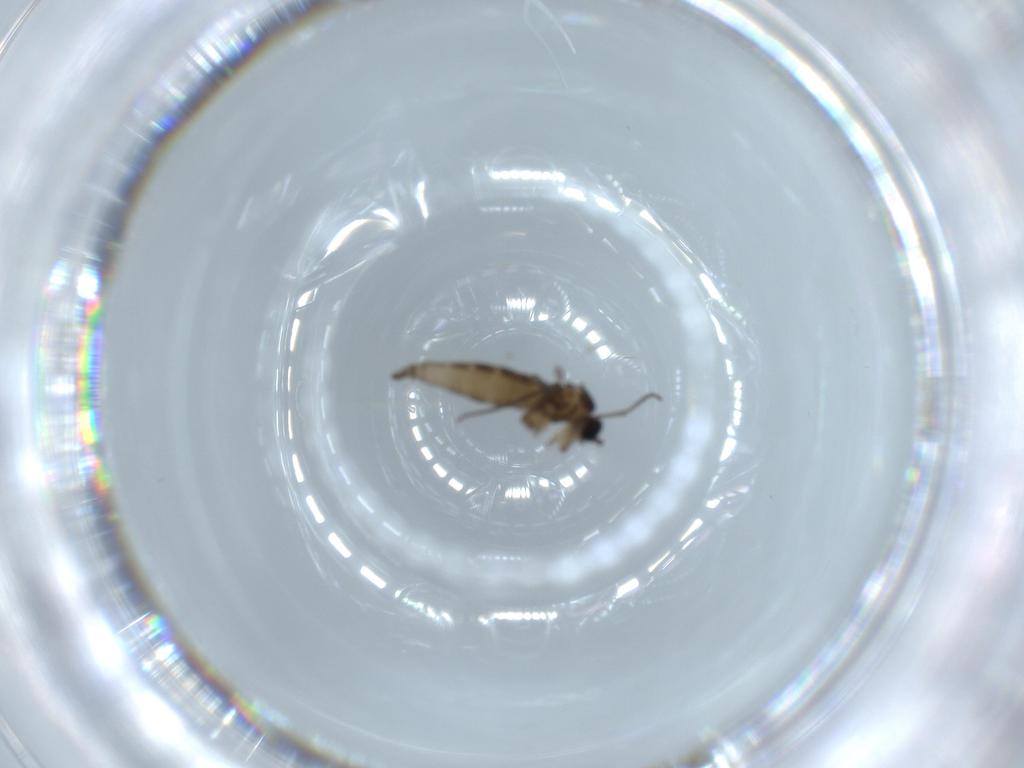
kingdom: Animalia
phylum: Arthropoda
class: Insecta
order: Diptera
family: Sciaridae
